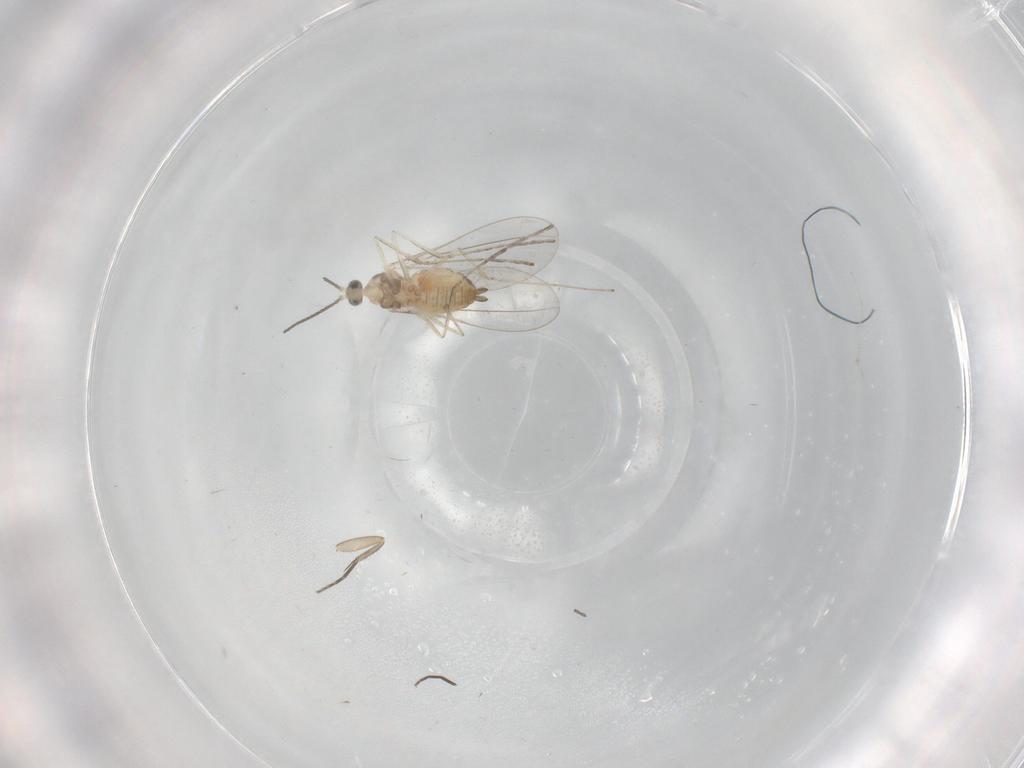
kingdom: Animalia
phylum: Arthropoda
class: Insecta
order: Diptera
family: Cecidomyiidae
